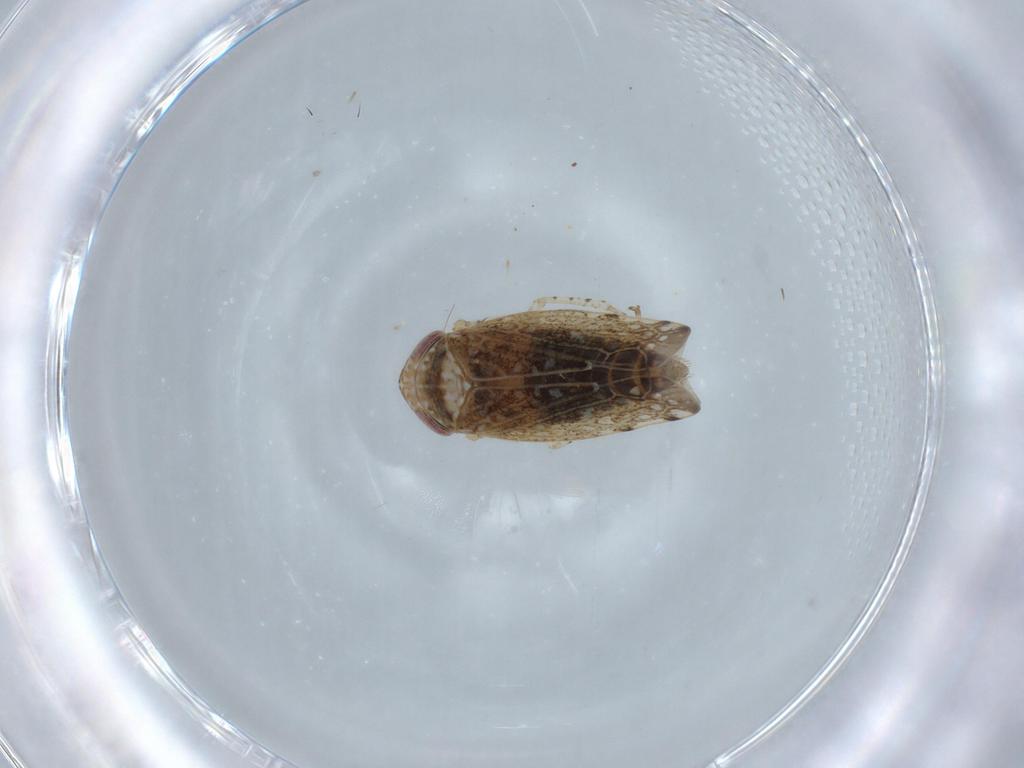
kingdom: Animalia
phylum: Arthropoda
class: Insecta
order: Hemiptera
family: Cicadellidae
